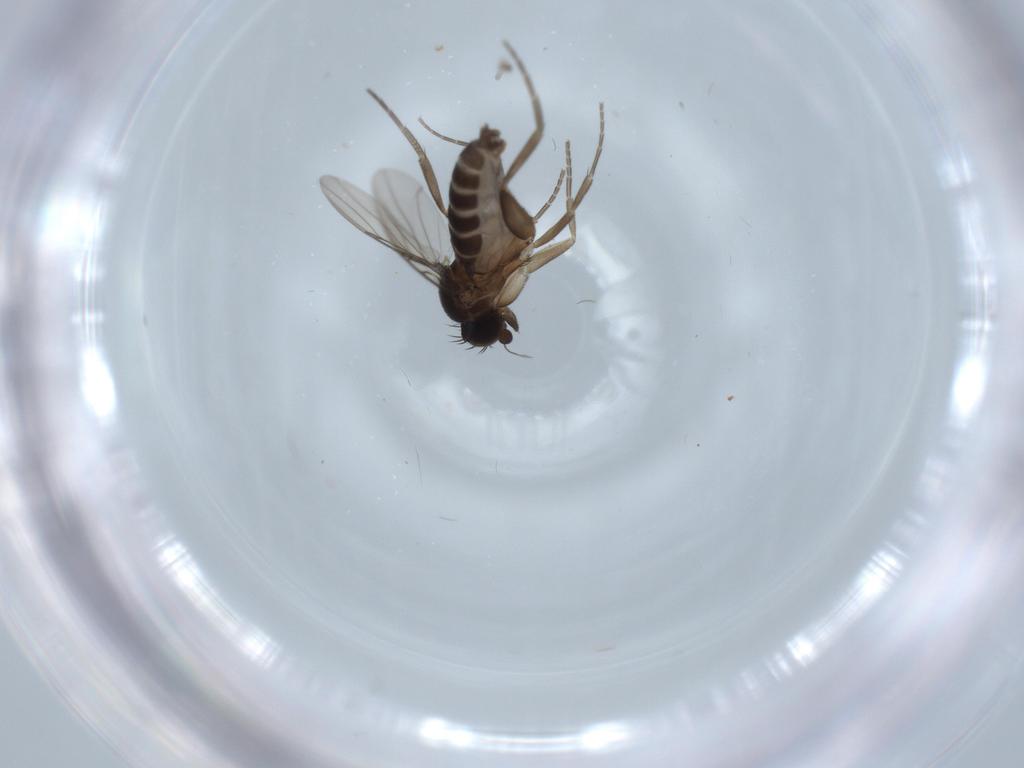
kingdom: Animalia
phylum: Arthropoda
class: Insecta
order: Diptera
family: Phoridae
